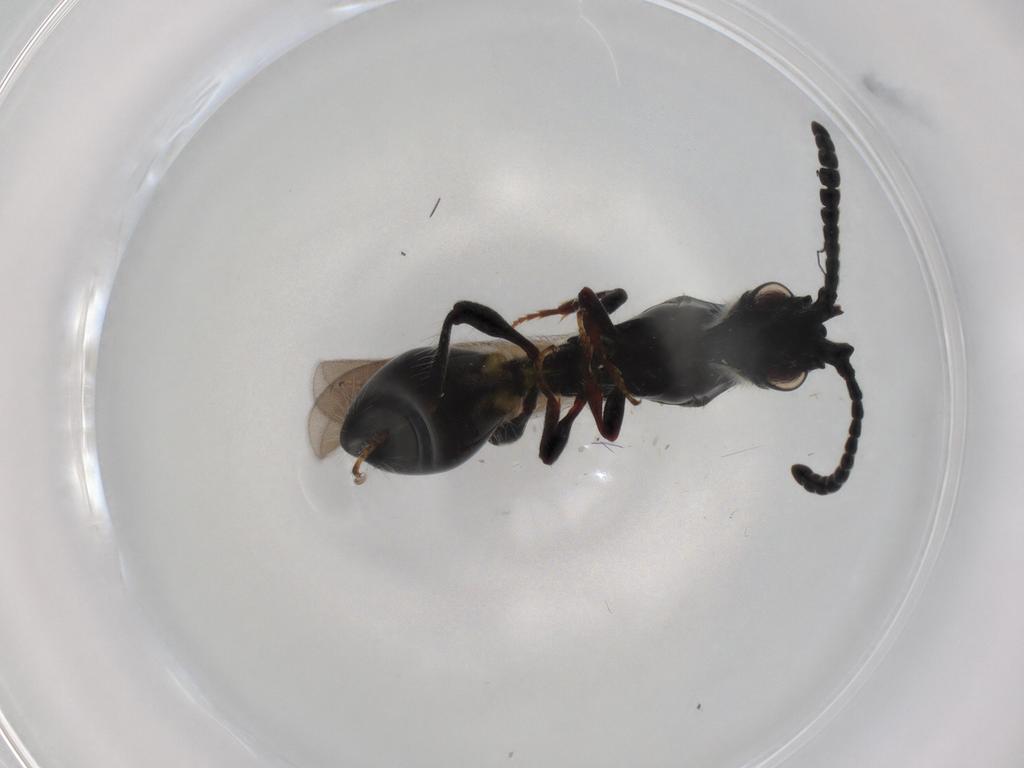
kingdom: Animalia
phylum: Arthropoda
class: Insecta
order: Hymenoptera
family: Diapriidae
